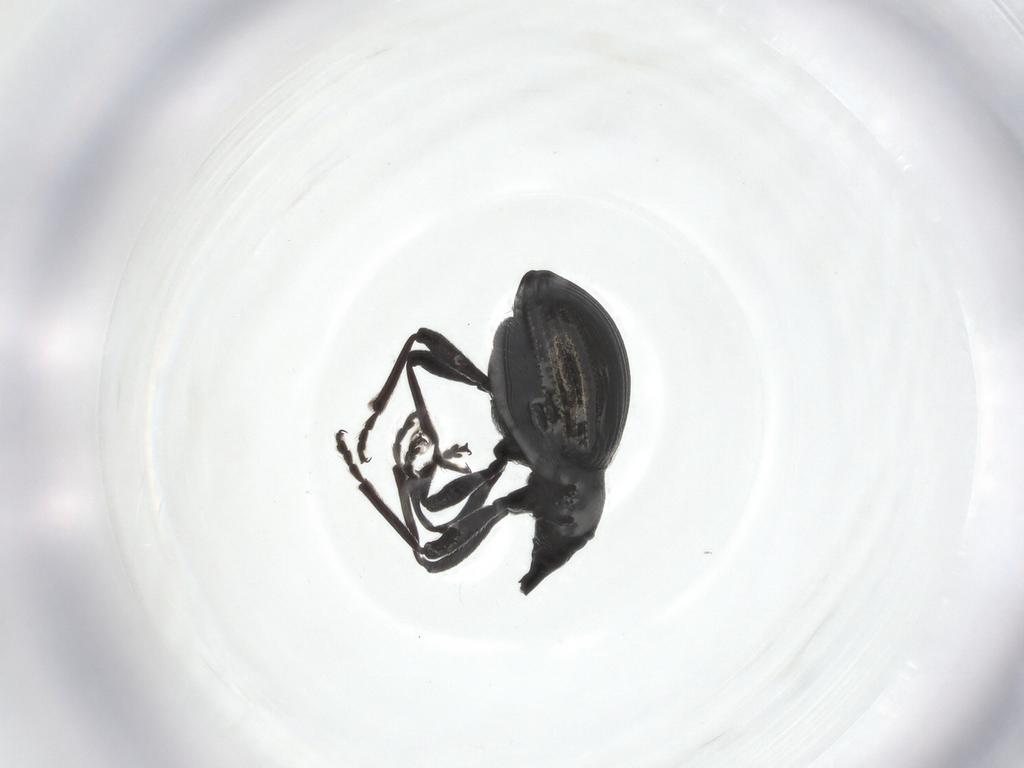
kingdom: Animalia
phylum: Arthropoda
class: Insecta
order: Coleoptera
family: Brentidae
